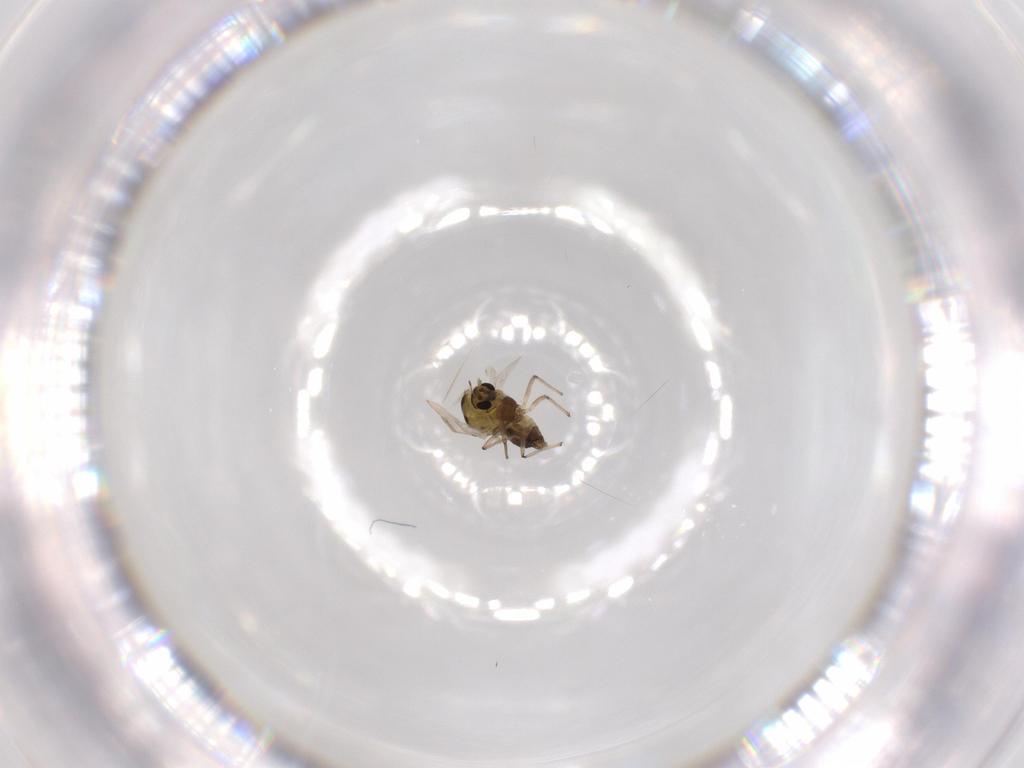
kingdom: Animalia
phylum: Arthropoda
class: Insecta
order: Diptera
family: Chironomidae
